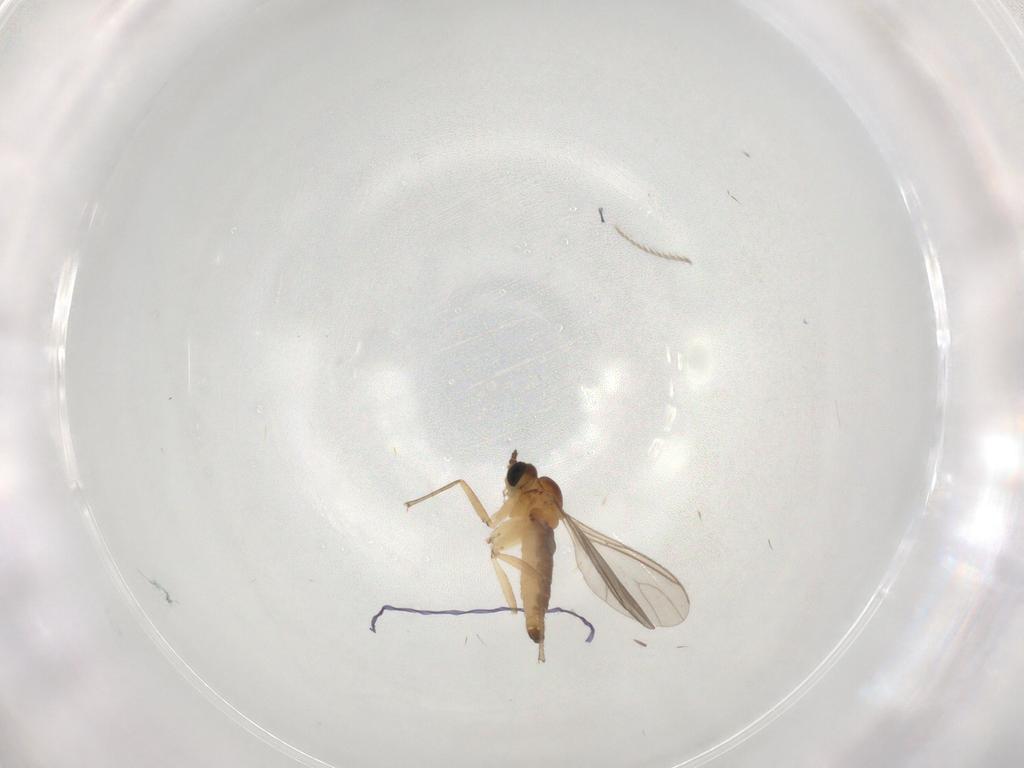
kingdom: Animalia
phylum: Arthropoda
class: Insecta
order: Diptera
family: Sciaridae
